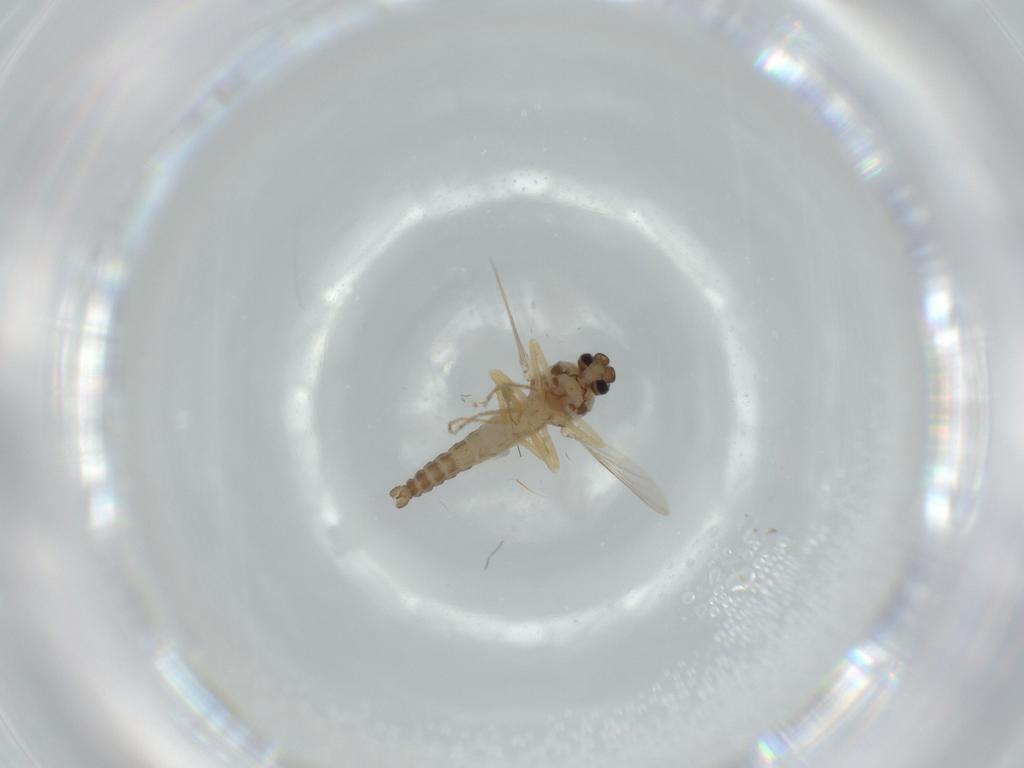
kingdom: Animalia
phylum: Arthropoda
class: Insecta
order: Diptera
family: Ceratopogonidae
